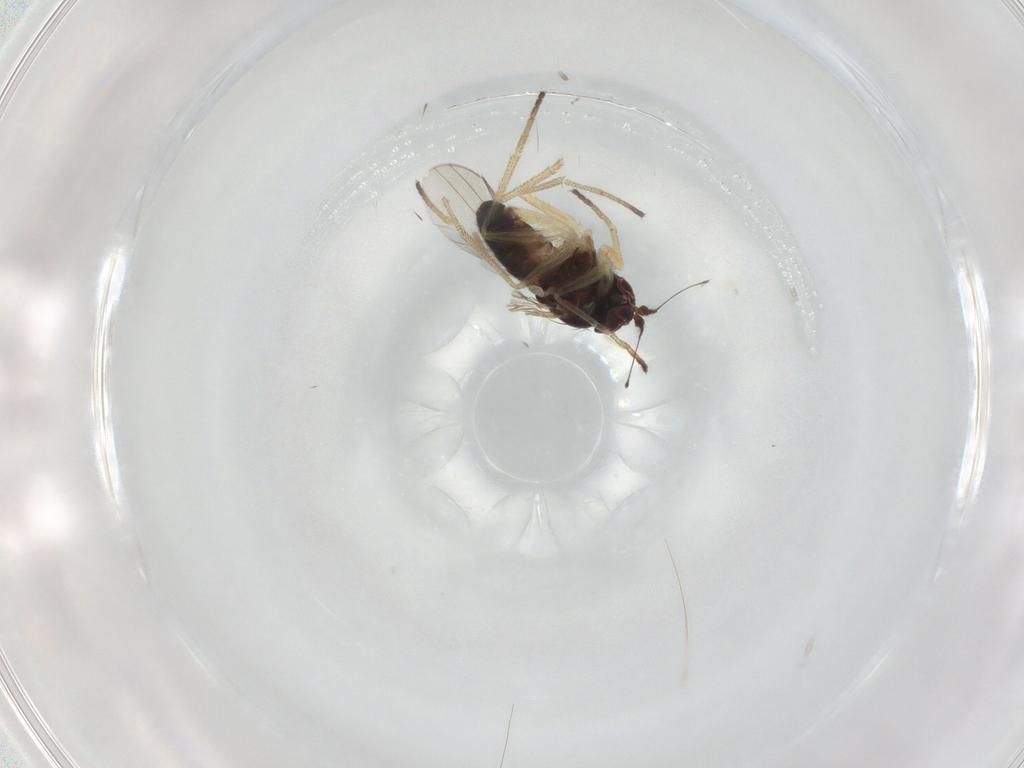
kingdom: Animalia
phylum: Arthropoda
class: Insecta
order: Diptera
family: Dolichopodidae
